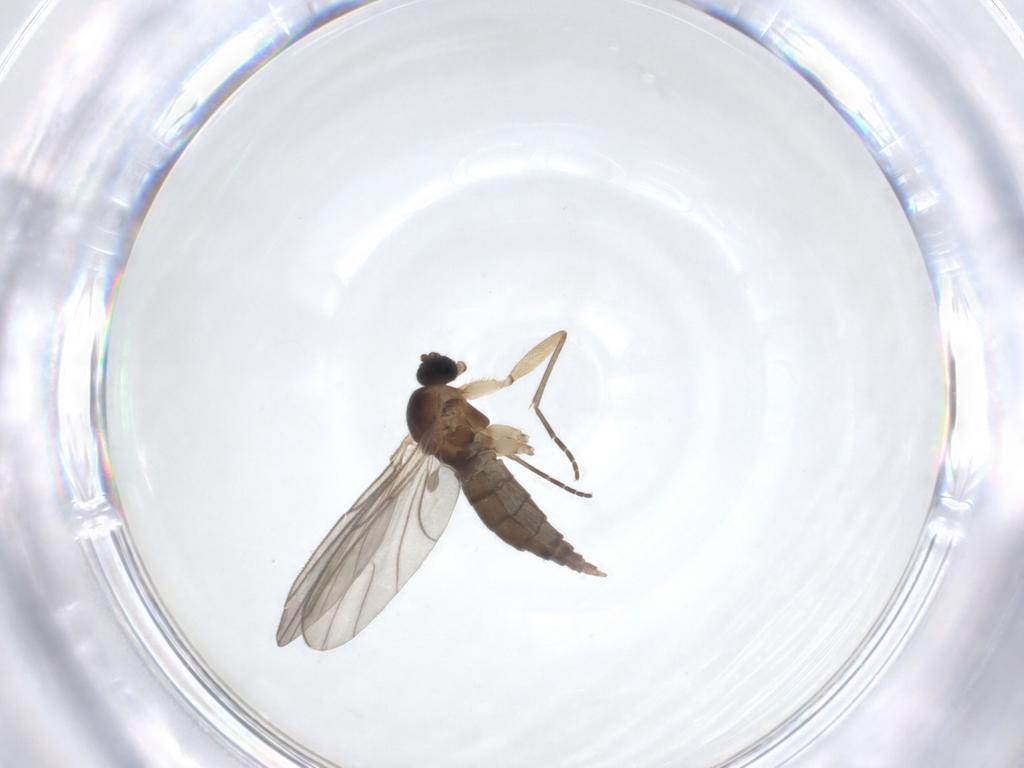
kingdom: Animalia
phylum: Arthropoda
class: Insecta
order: Diptera
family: Sciaridae
